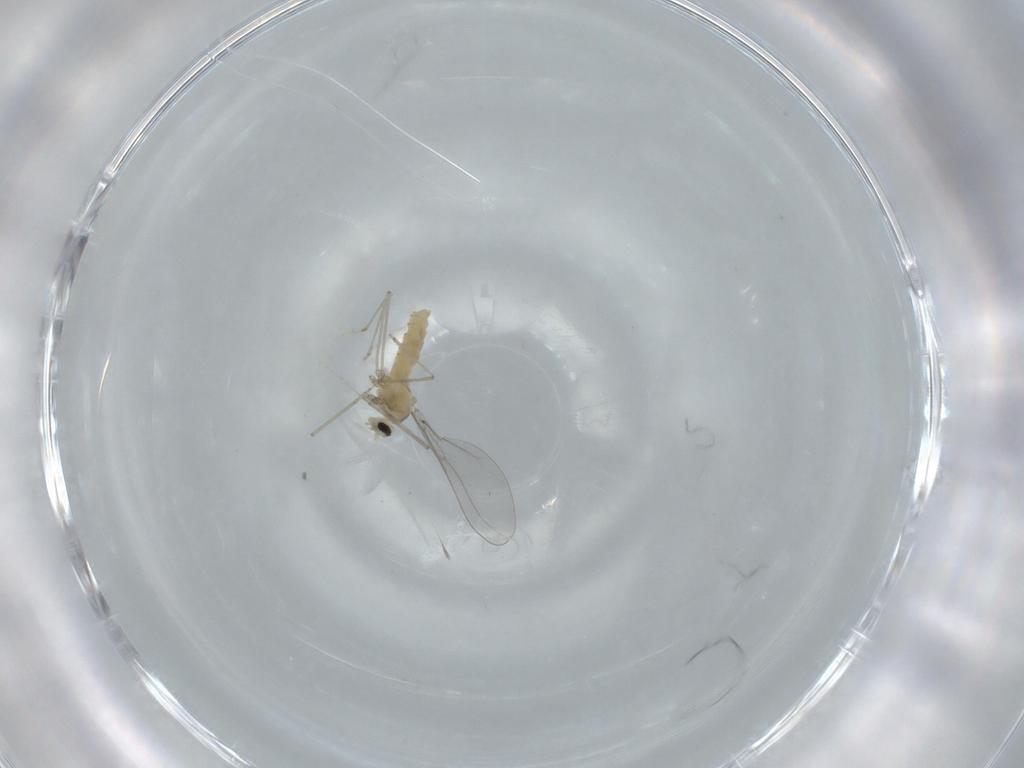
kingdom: Animalia
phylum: Arthropoda
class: Insecta
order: Diptera
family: Cecidomyiidae
